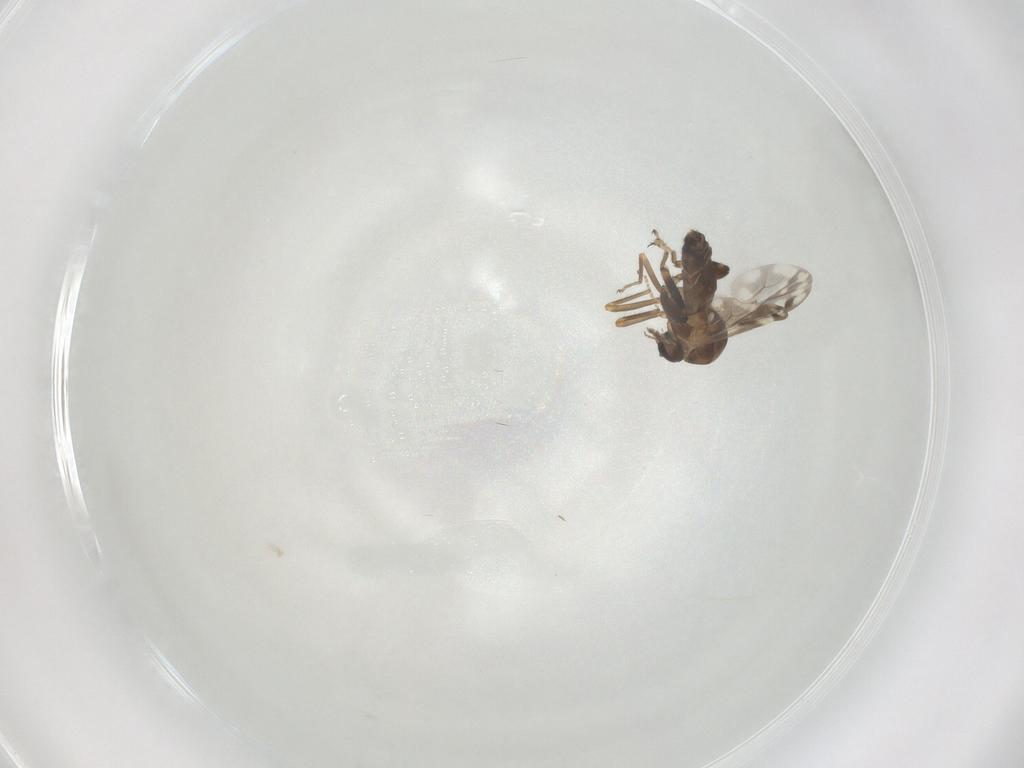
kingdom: Animalia
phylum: Arthropoda
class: Insecta
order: Diptera
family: Ceratopogonidae
